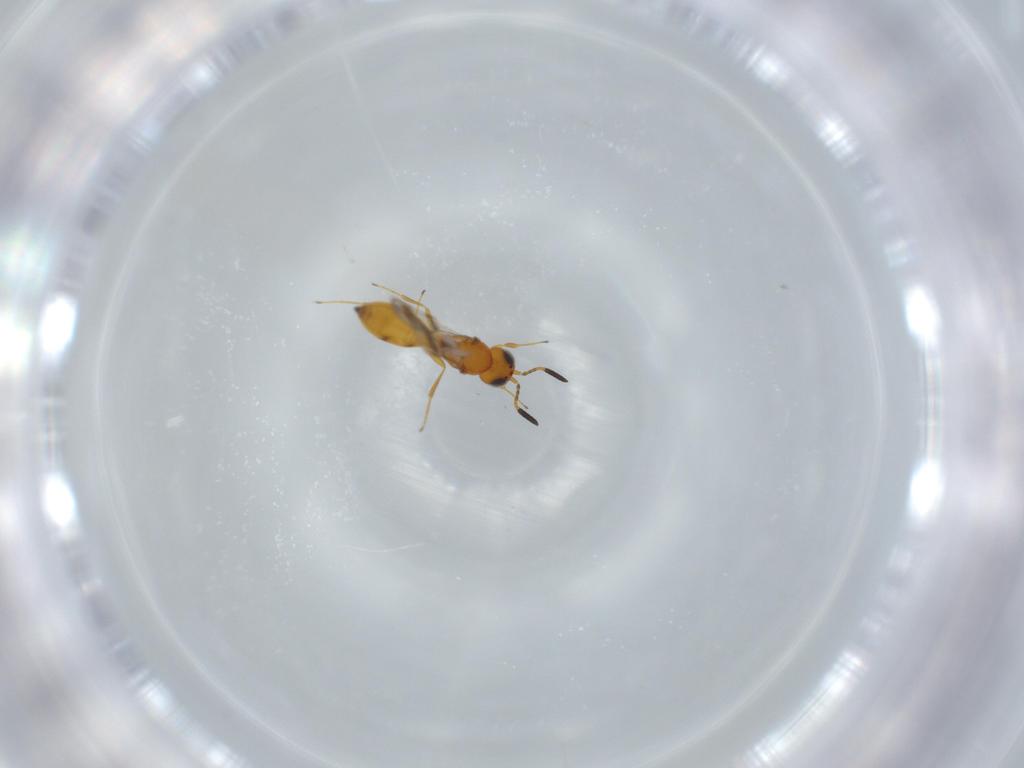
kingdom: Animalia
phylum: Arthropoda
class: Insecta
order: Hymenoptera
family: Scelionidae
